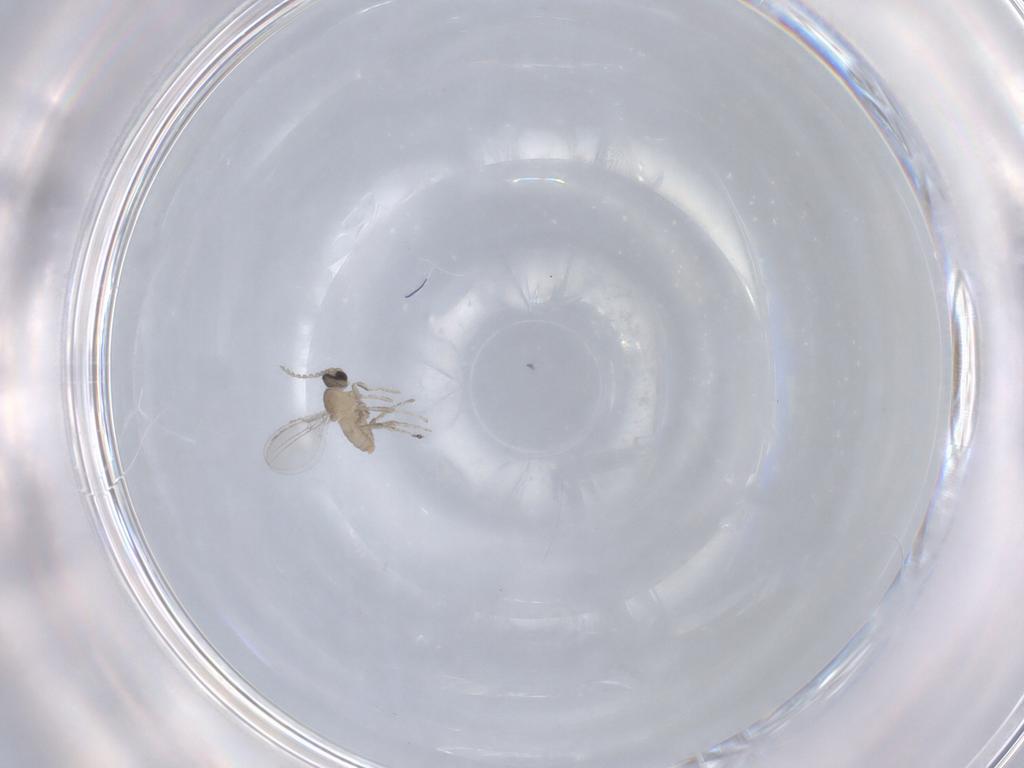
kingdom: Animalia
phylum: Arthropoda
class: Insecta
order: Diptera
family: Cecidomyiidae
